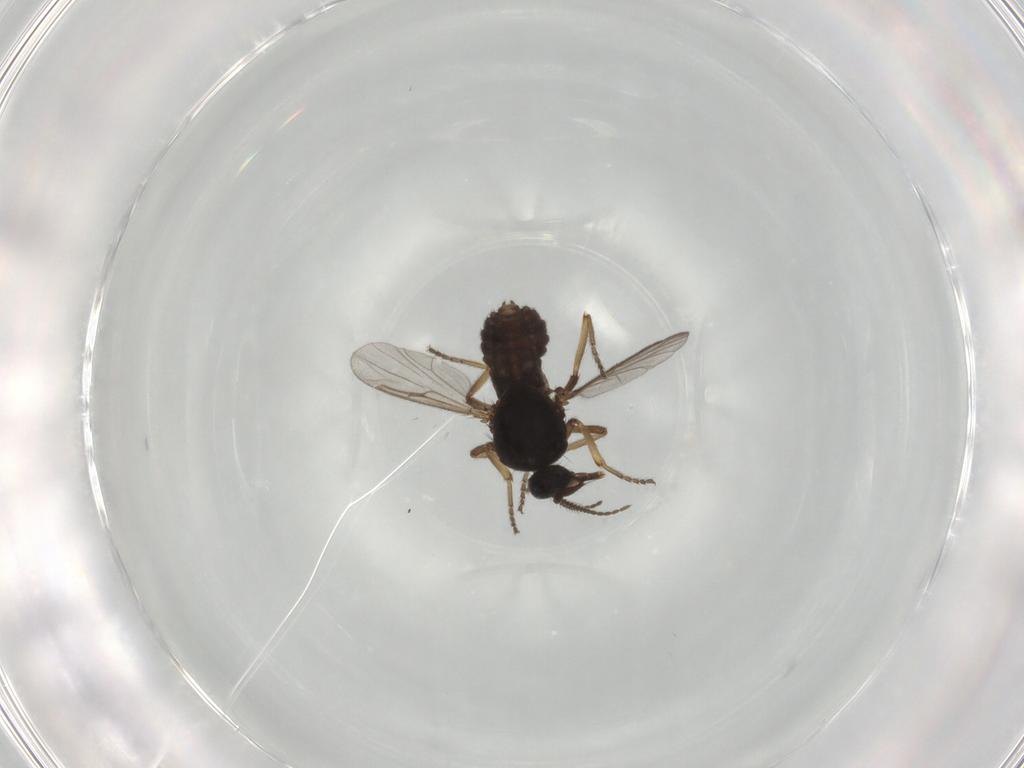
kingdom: Animalia
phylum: Arthropoda
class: Insecta
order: Diptera
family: Ceratopogonidae
